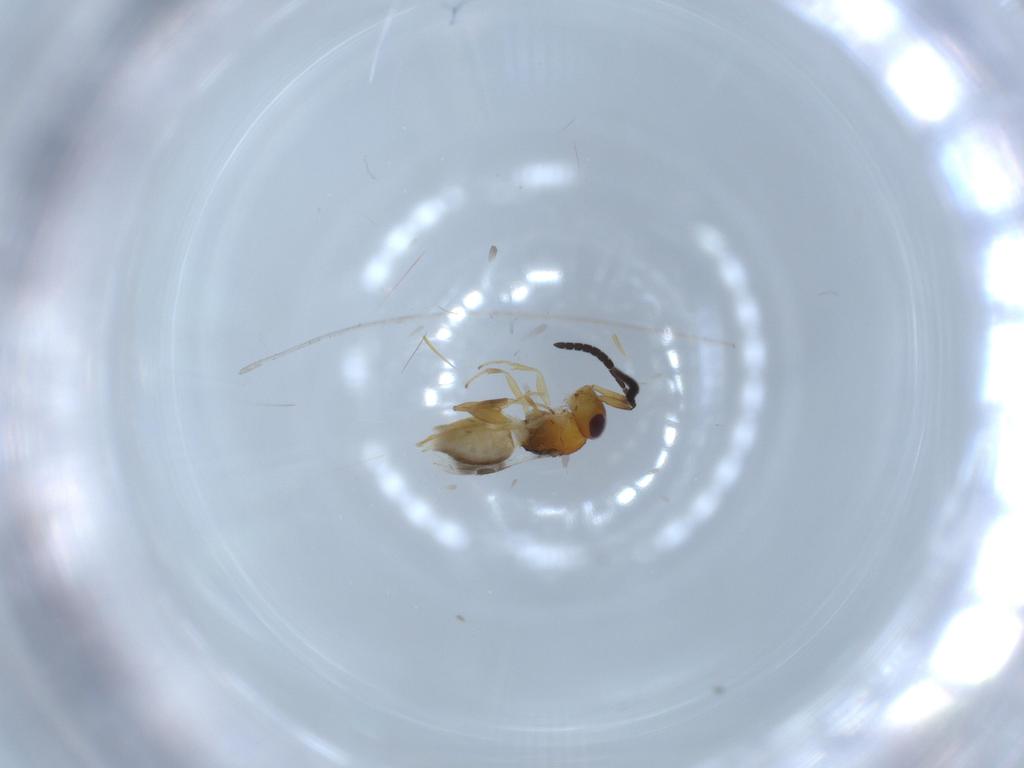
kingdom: Animalia
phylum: Arthropoda
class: Insecta
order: Hymenoptera
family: Megaspilidae
